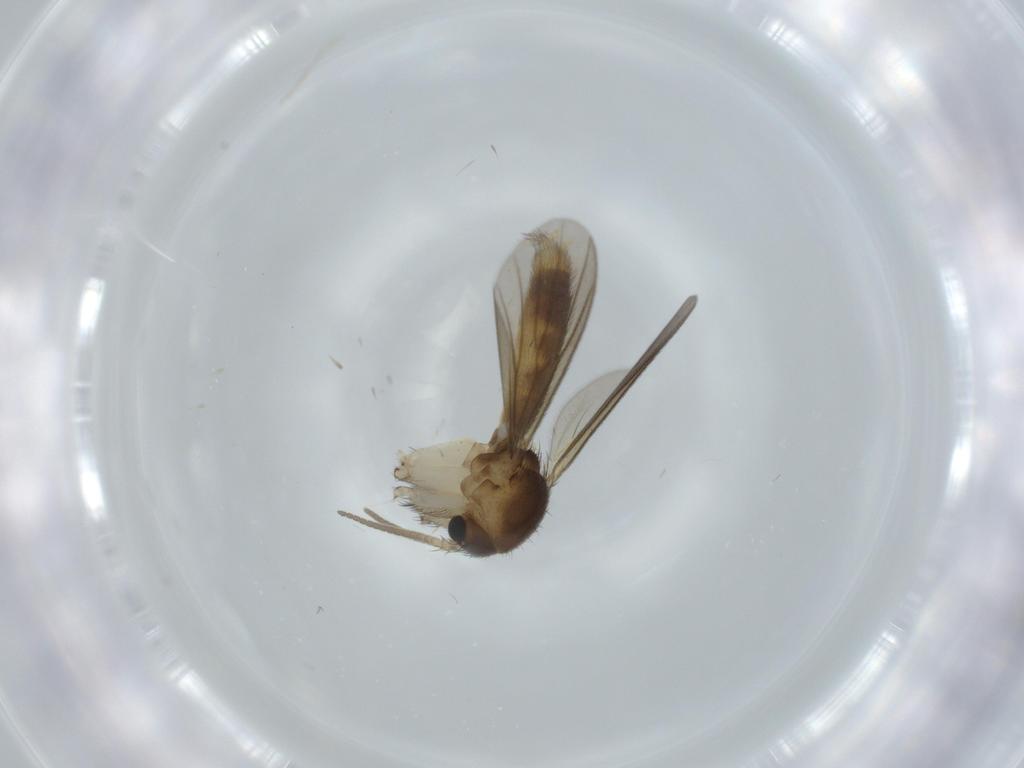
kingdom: Animalia
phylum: Arthropoda
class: Insecta
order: Diptera
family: Mycetophilidae
